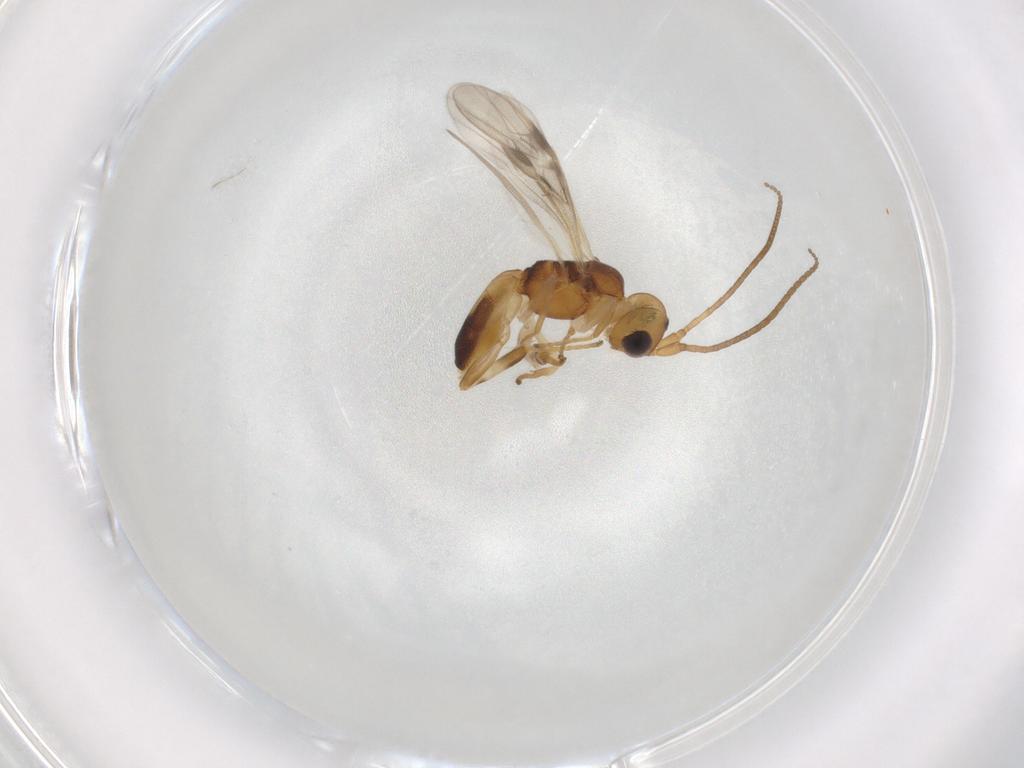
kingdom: Animalia
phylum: Arthropoda
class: Insecta
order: Hymenoptera
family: Braconidae
